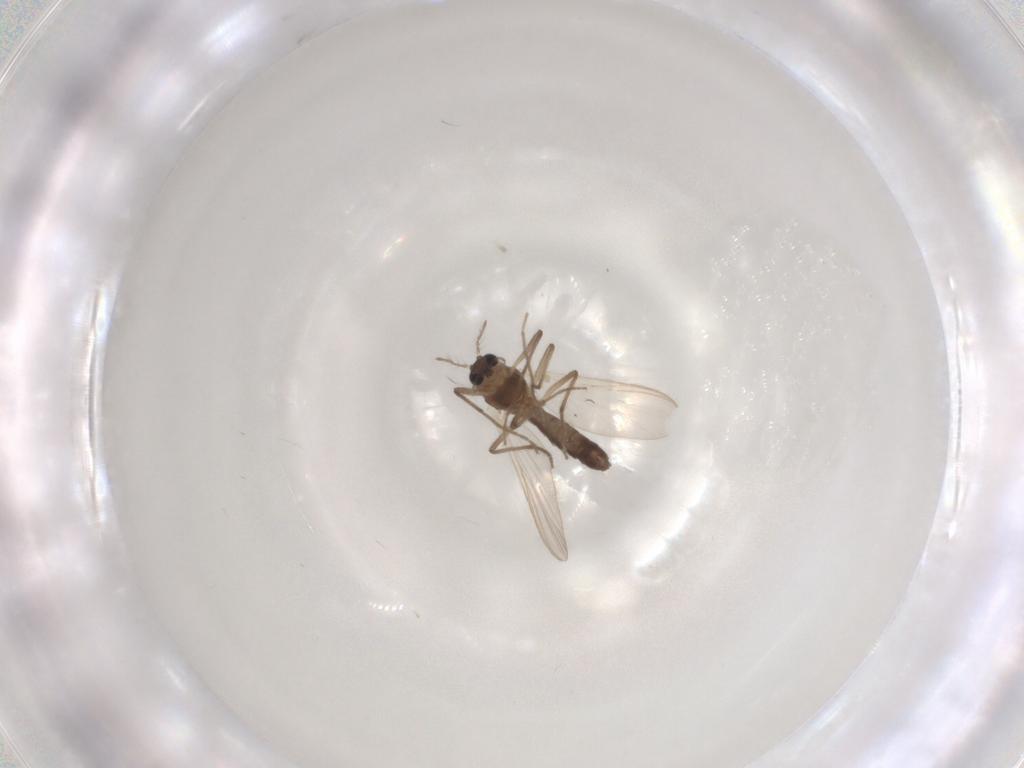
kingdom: Animalia
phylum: Arthropoda
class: Insecta
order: Diptera
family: Chironomidae
